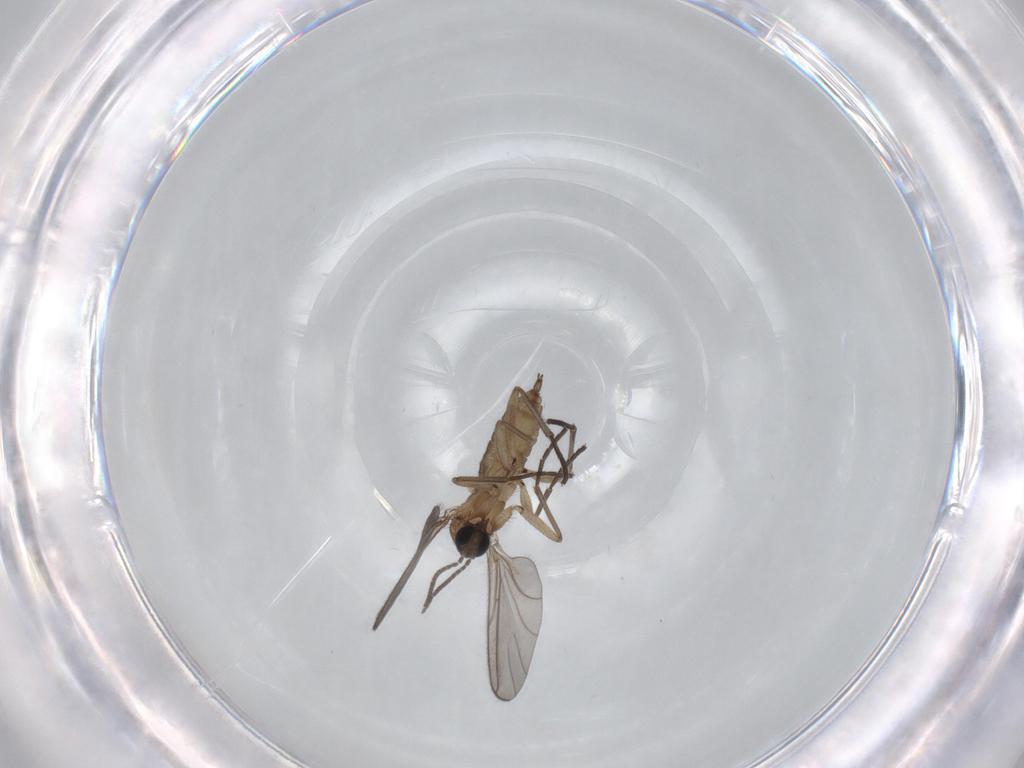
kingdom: Animalia
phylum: Arthropoda
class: Insecta
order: Diptera
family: Sciaridae
